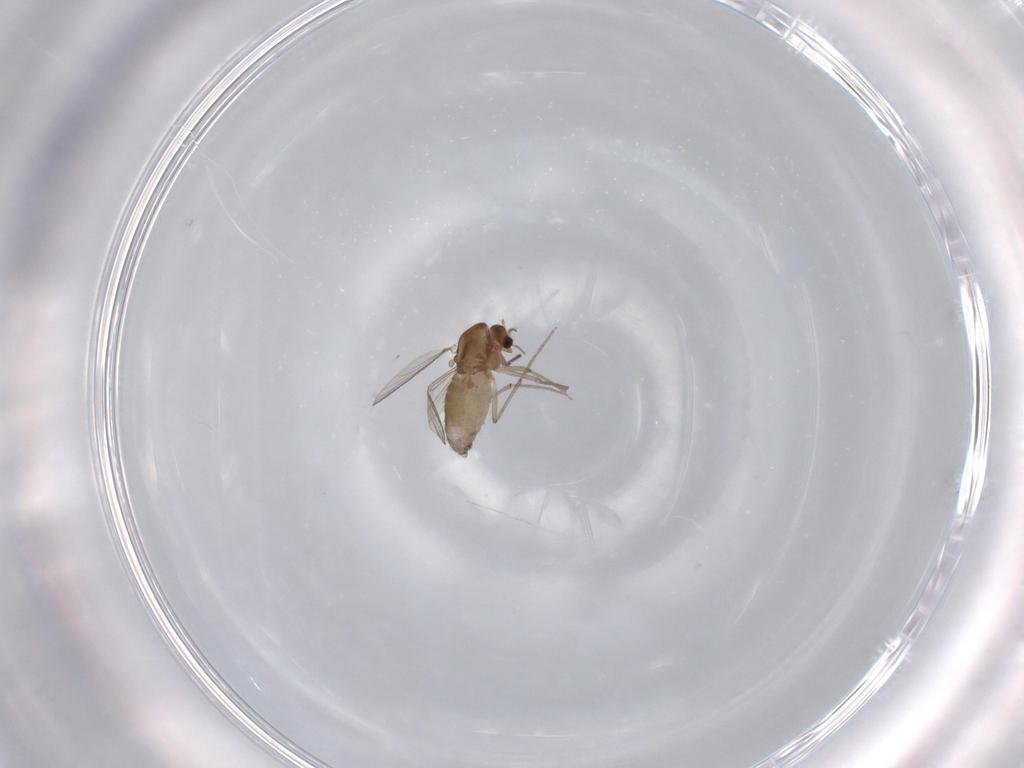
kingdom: Animalia
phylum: Arthropoda
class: Insecta
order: Diptera
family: Chironomidae
